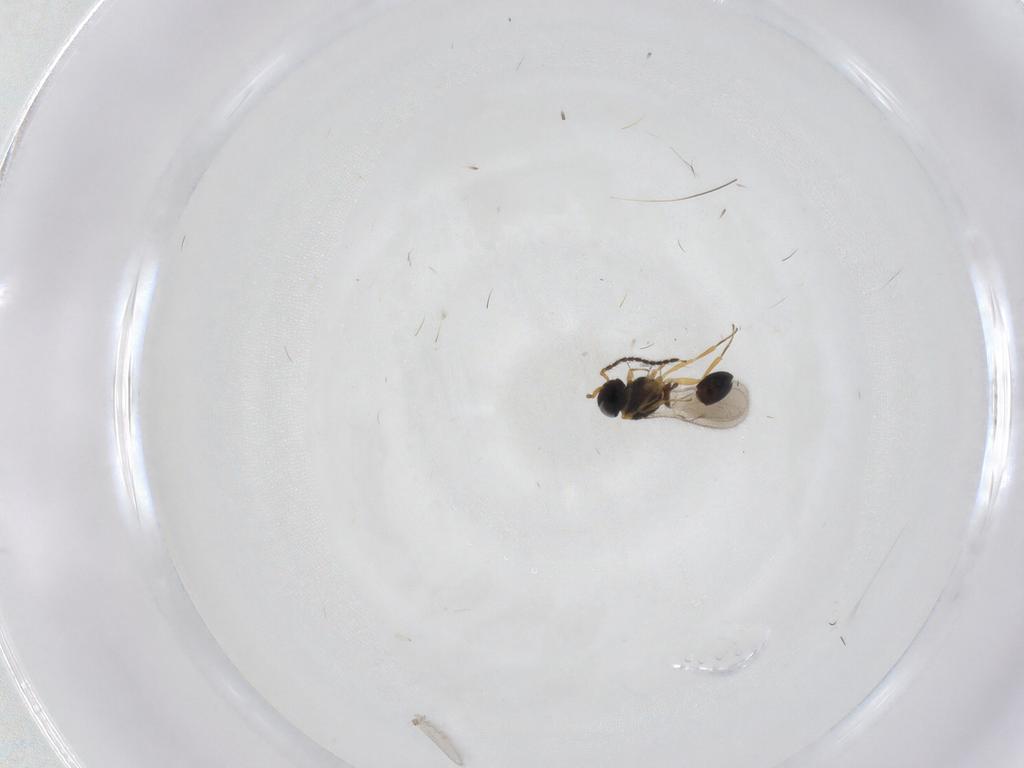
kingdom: Animalia
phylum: Arthropoda
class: Insecta
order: Hymenoptera
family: Scelionidae
